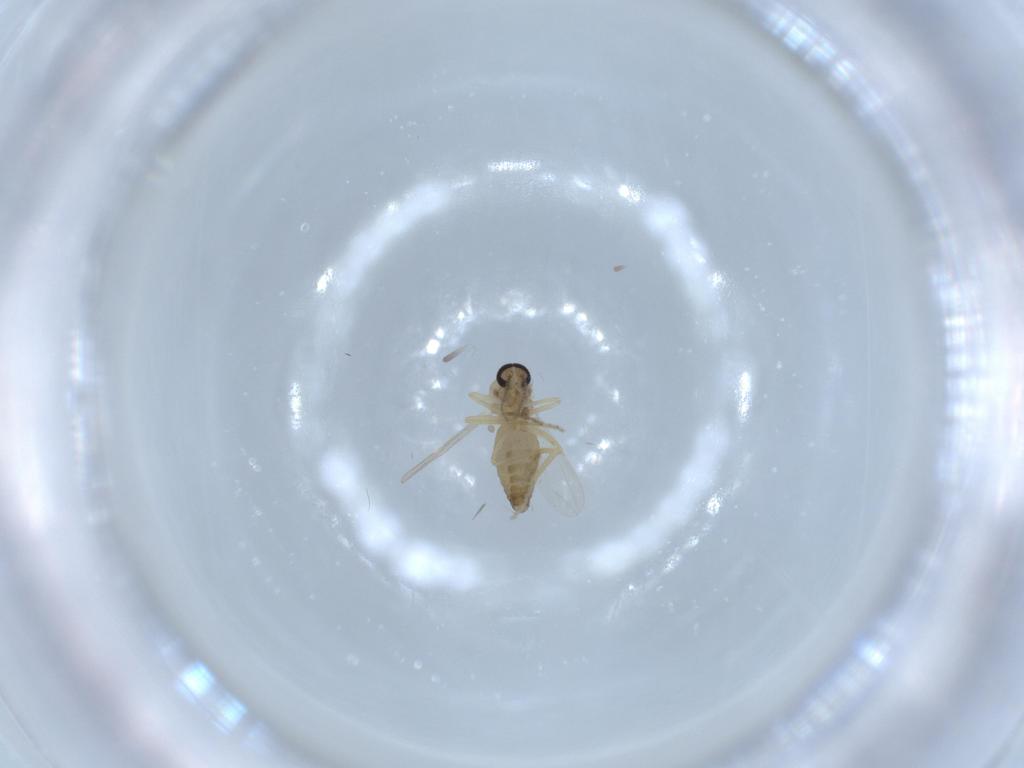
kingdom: Animalia
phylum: Arthropoda
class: Insecta
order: Diptera
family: Ceratopogonidae
